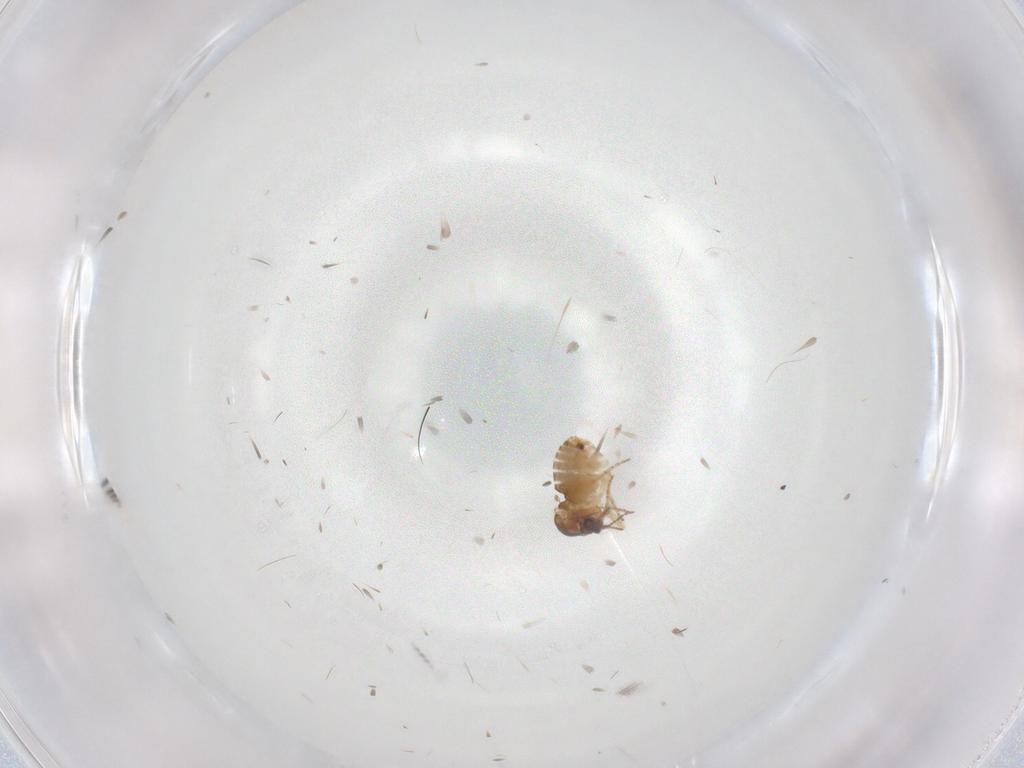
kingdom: Animalia
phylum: Arthropoda
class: Insecta
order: Diptera
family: Ceratopogonidae
